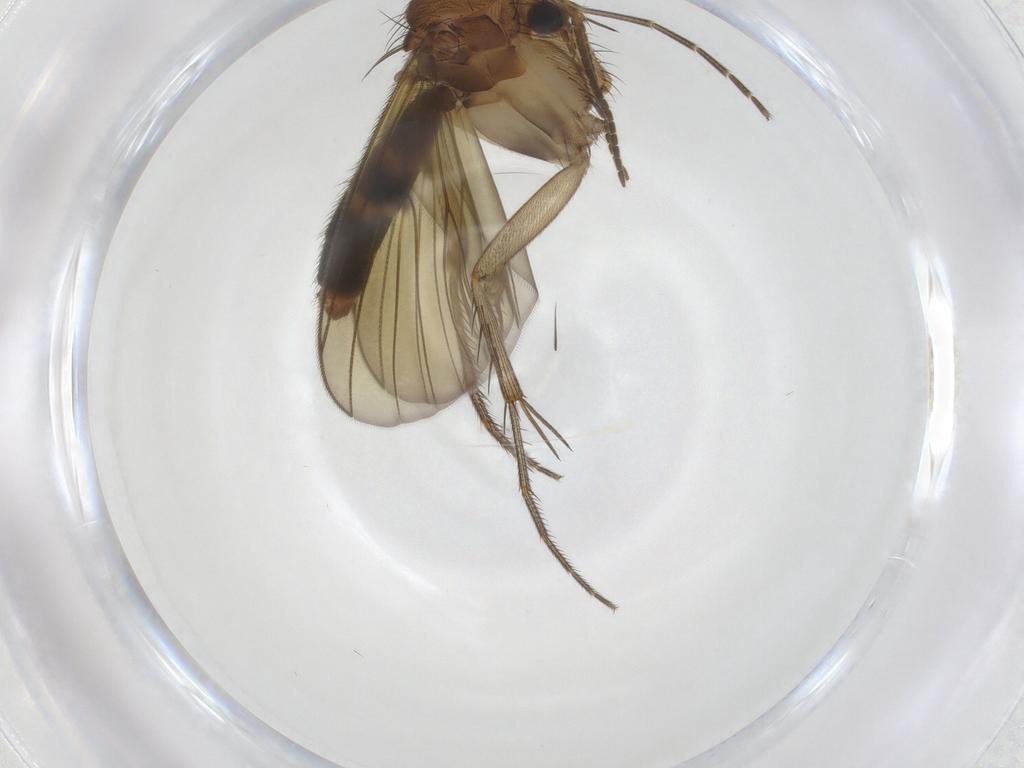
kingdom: Animalia
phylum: Arthropoda
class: Insecta
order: Diptera
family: Mycetophilidae
